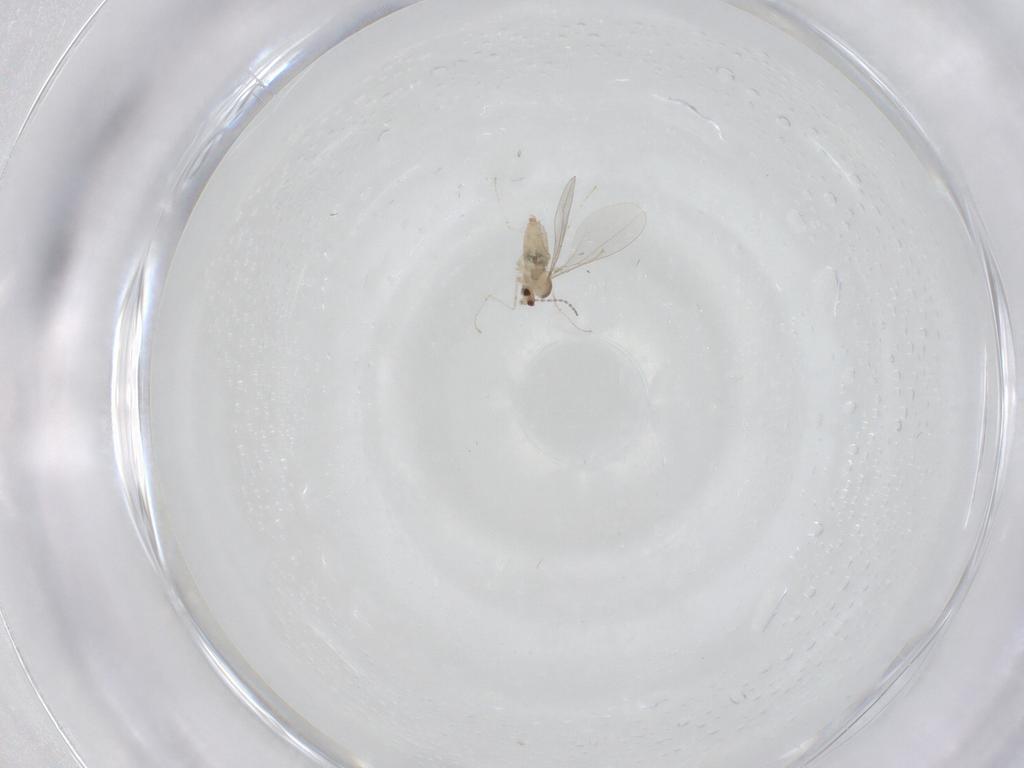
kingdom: Animalia
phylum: Arthropoda
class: Insecta
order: Diptera
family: Cecidomyiidae
